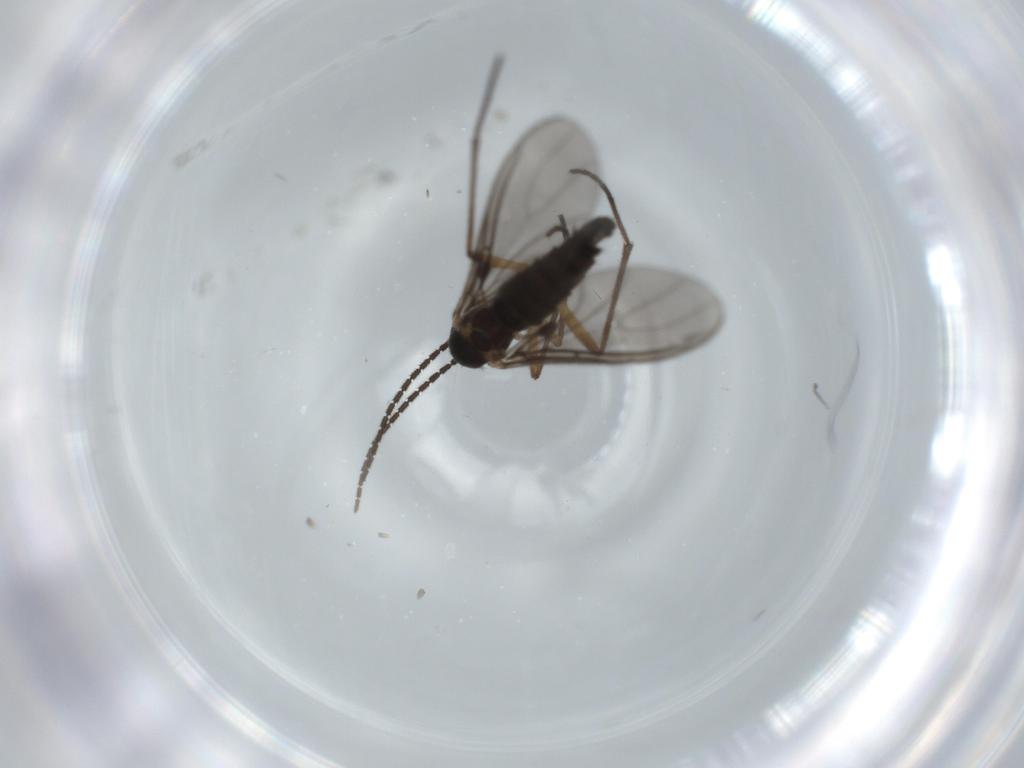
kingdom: Animalia
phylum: Arthropoda
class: Insecta
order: Diptera
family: Sciaridae
